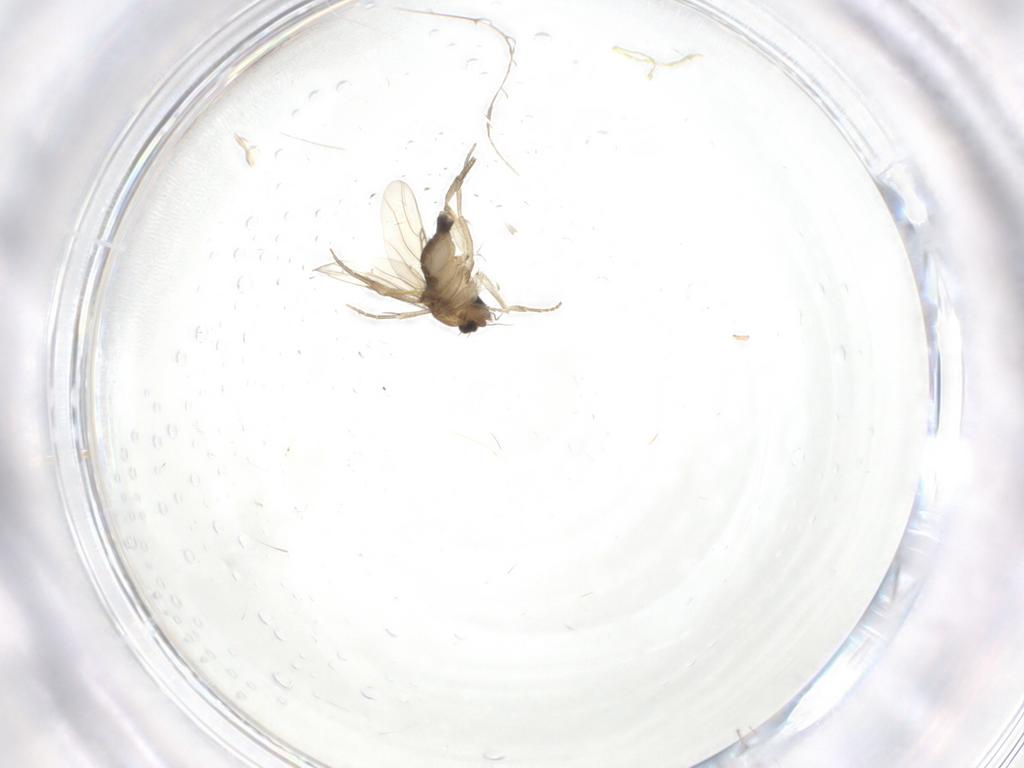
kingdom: Animalia
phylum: Arthropoda
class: Insecta
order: Diptera
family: Phoridae
